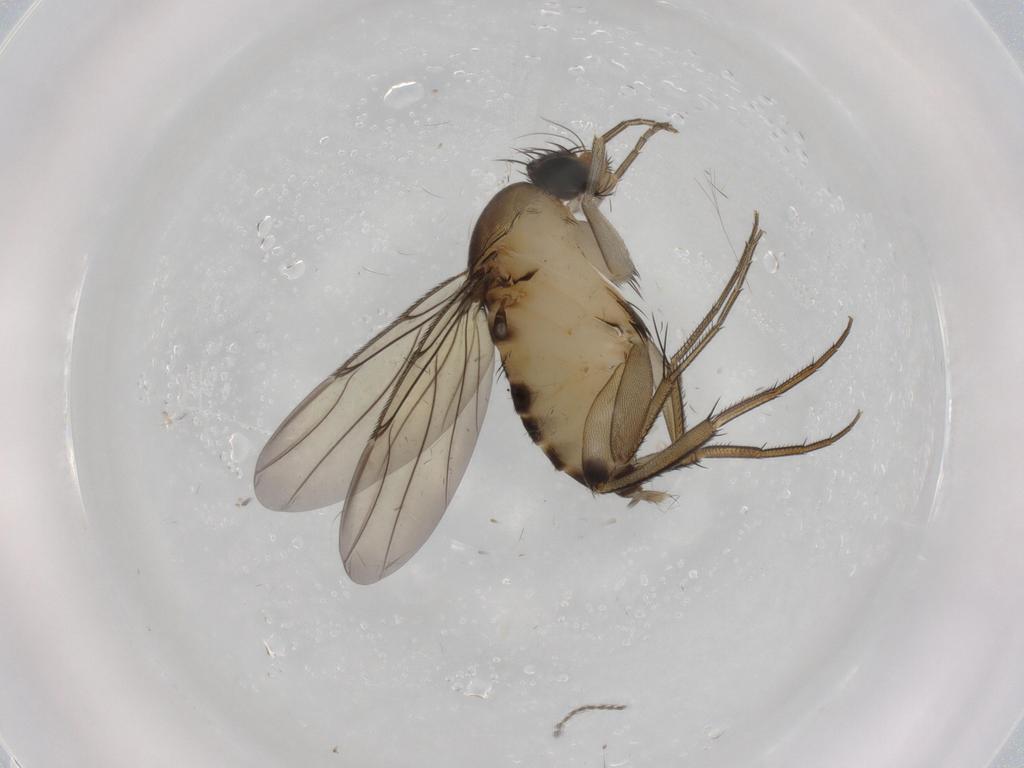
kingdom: Animalia
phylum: Arthropoda
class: Insecta
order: Diptera
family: Phoridae
